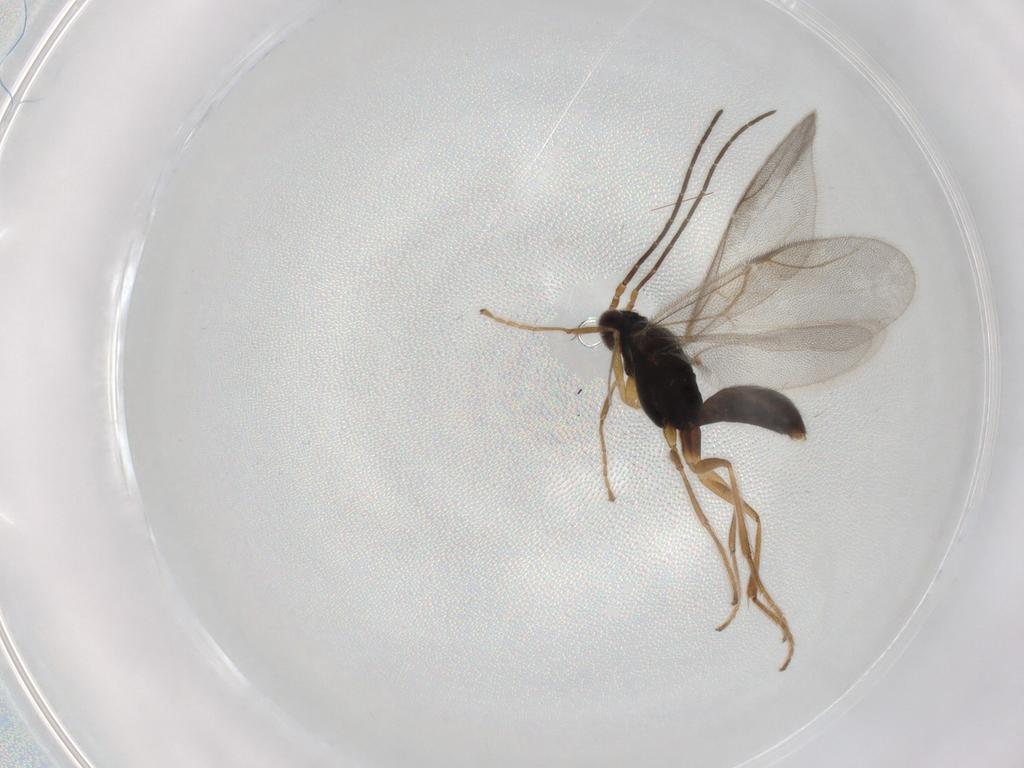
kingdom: Animalia
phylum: Arthropoda
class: Insecta
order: Hymenoptera
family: Dryinidae
